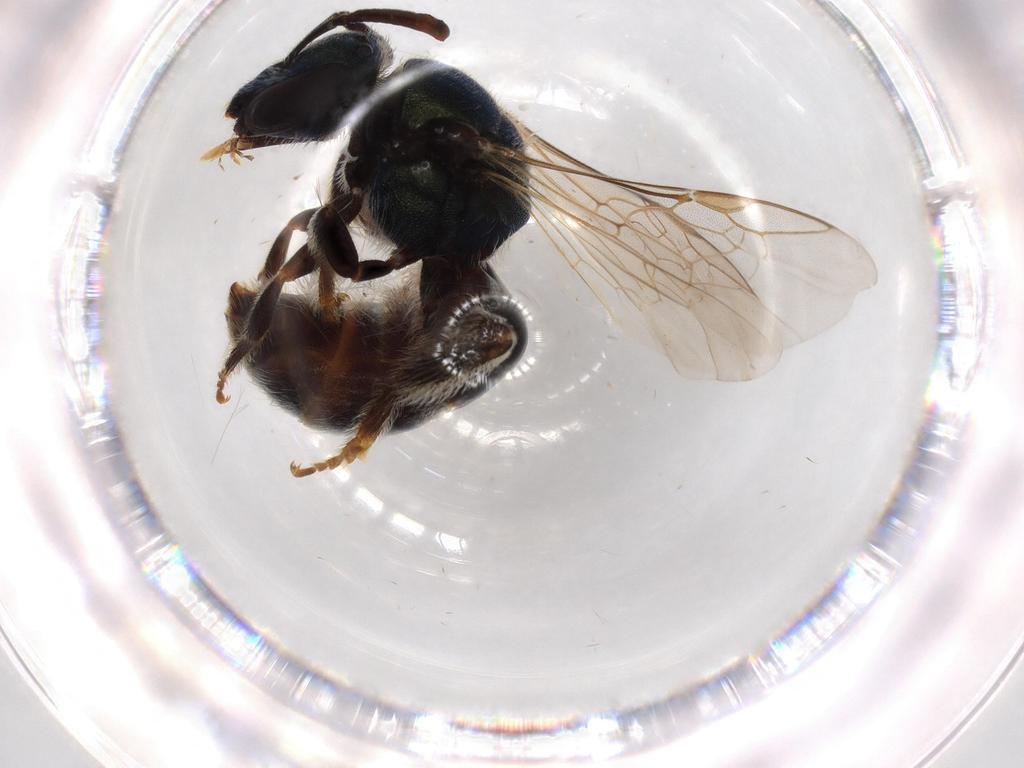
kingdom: Animalia
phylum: Arthropoda
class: Insecta
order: Hymenoptera
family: Halictidae
